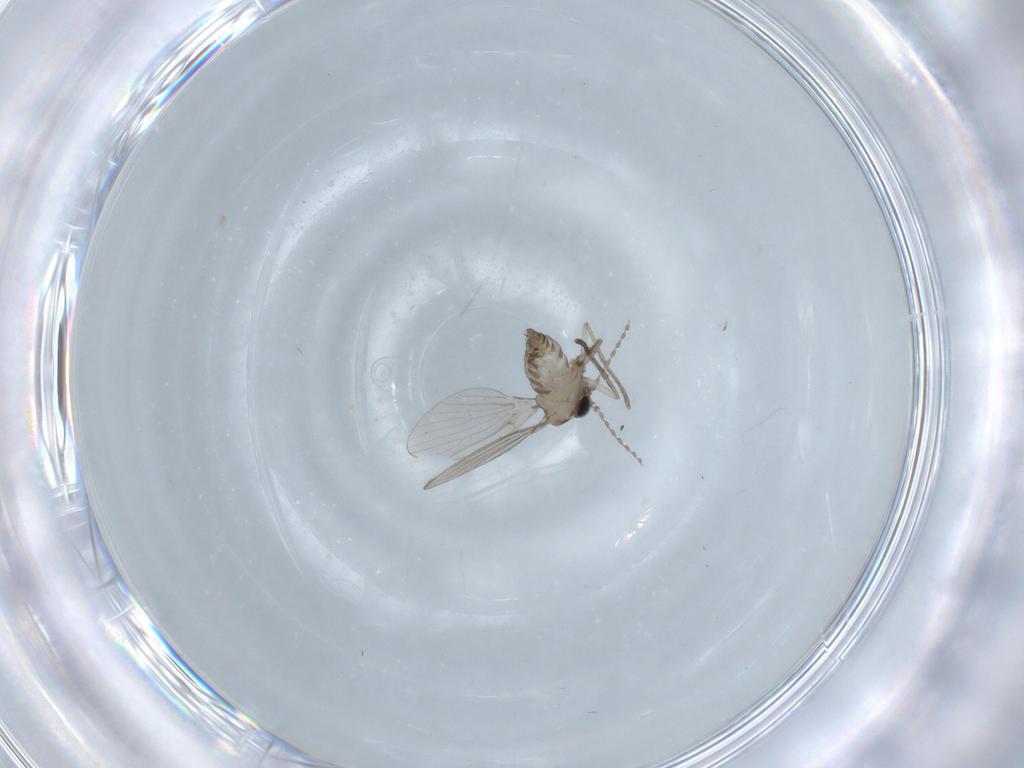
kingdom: Animalia
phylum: Arthropoda
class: Insecta
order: Diptera
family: Psychodidae
